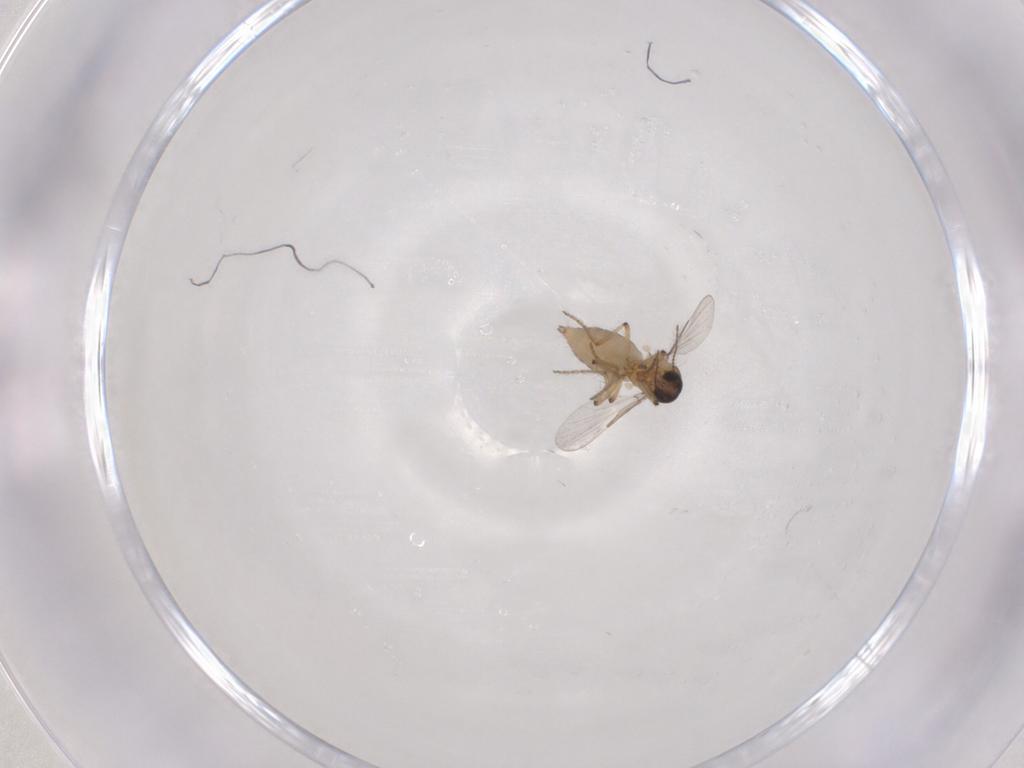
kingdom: Animalia
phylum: Arthropoda
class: Insecta
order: Diptera
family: Ceratopogonidae
